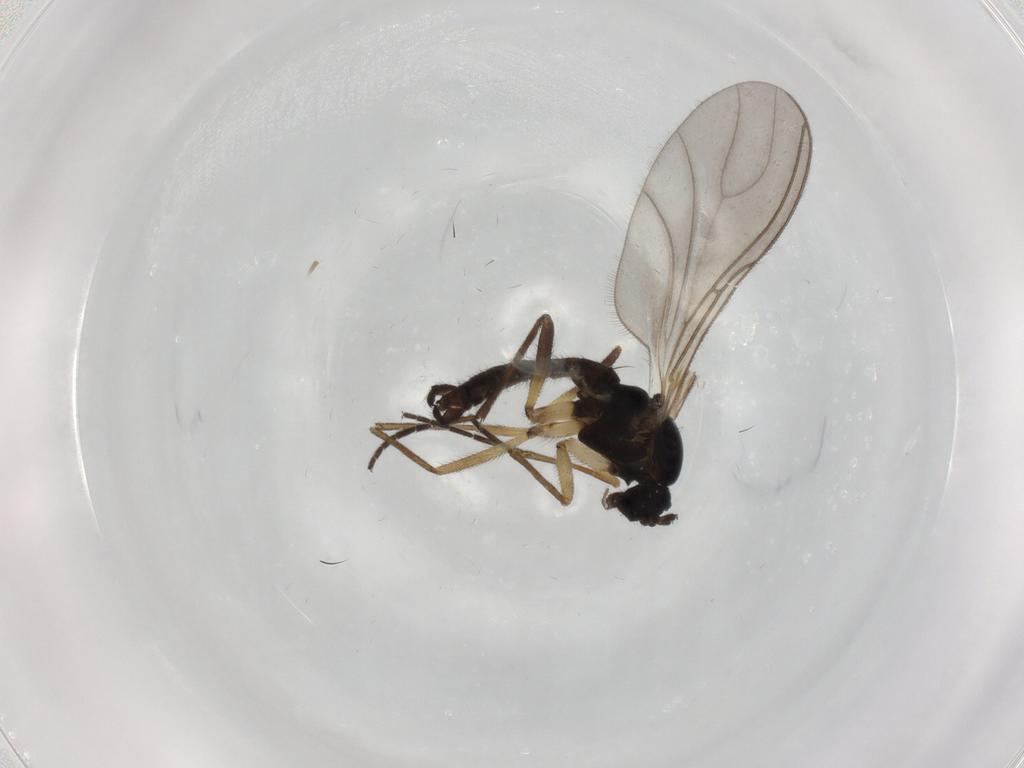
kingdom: Animalia
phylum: Arthropoda
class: Insecta
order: Diptera
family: Sciaridae
